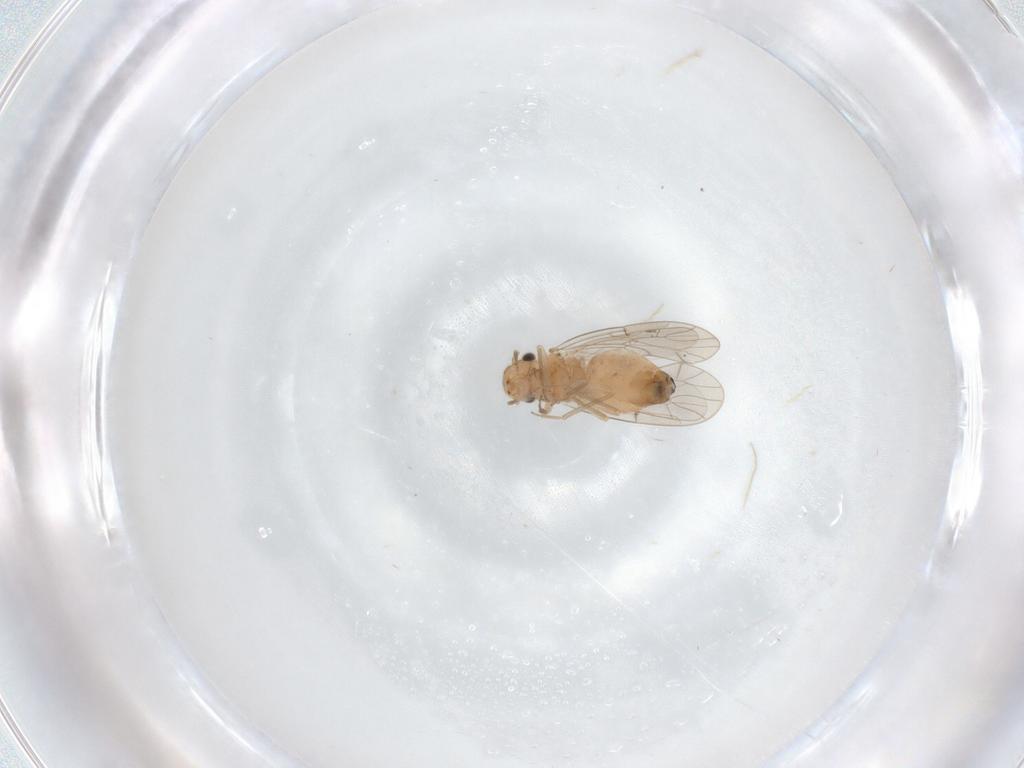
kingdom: Animalia
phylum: Arthropoda
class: Insecta
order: Psocodea
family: Ectopsocidae
